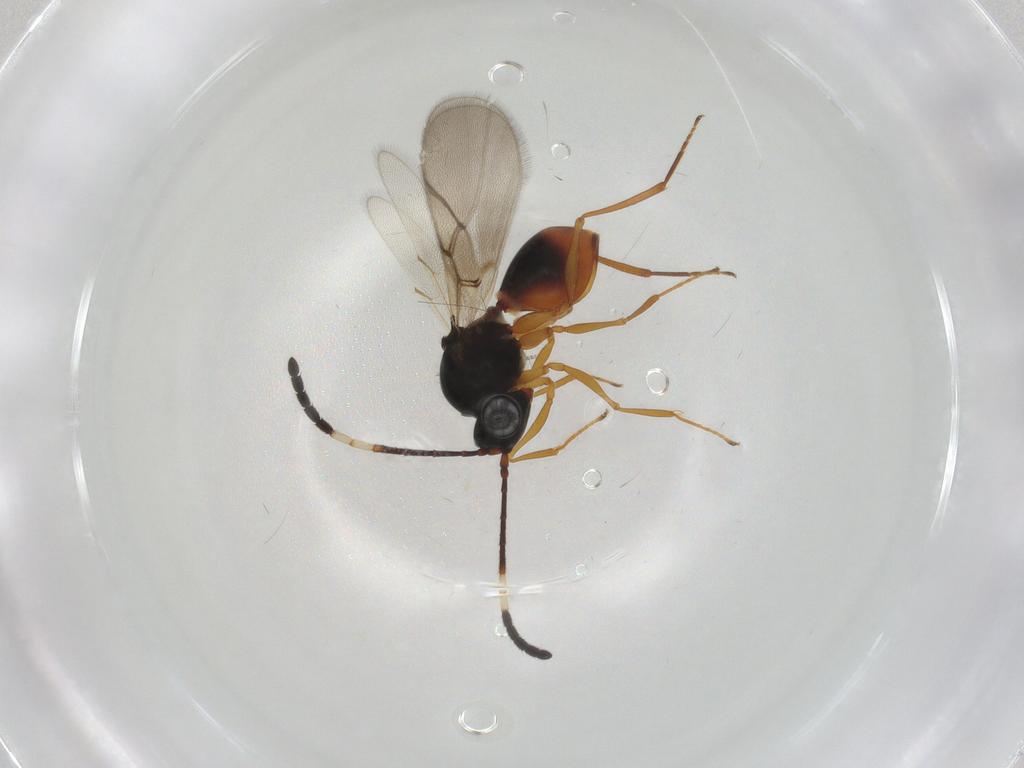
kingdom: Animalia
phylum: Arthropoda
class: Insecta
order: Hymenoptera
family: Figitidae
